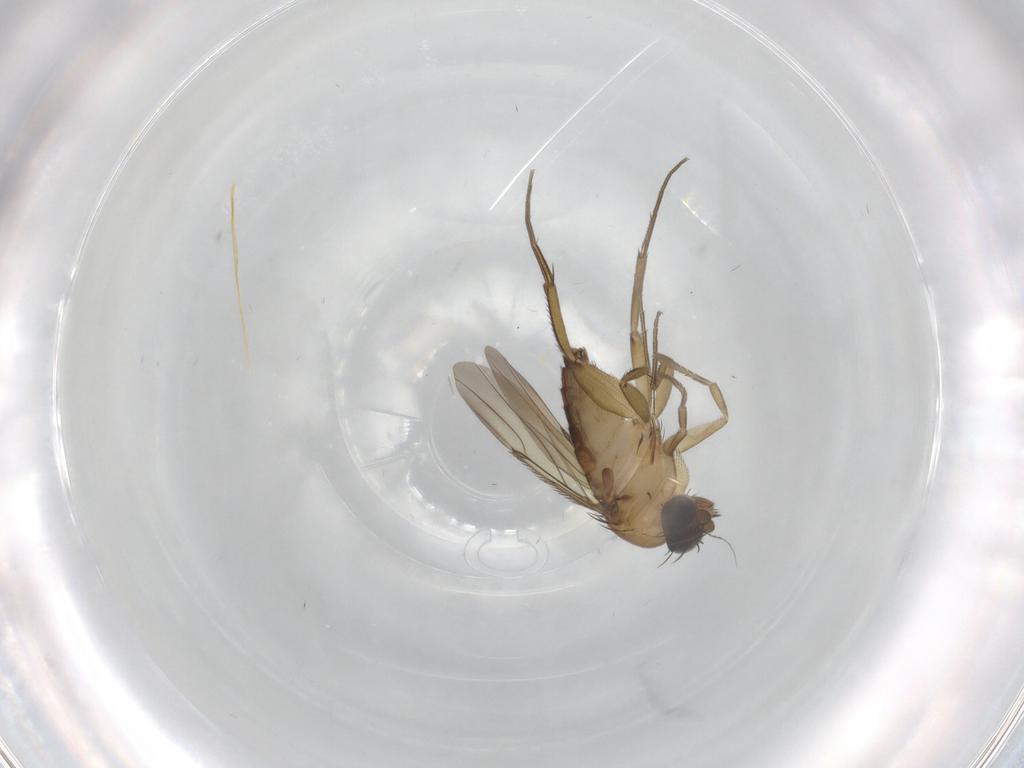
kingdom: Animalia
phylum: Arthropoda
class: Insecta
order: Diptera
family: Phoridae
